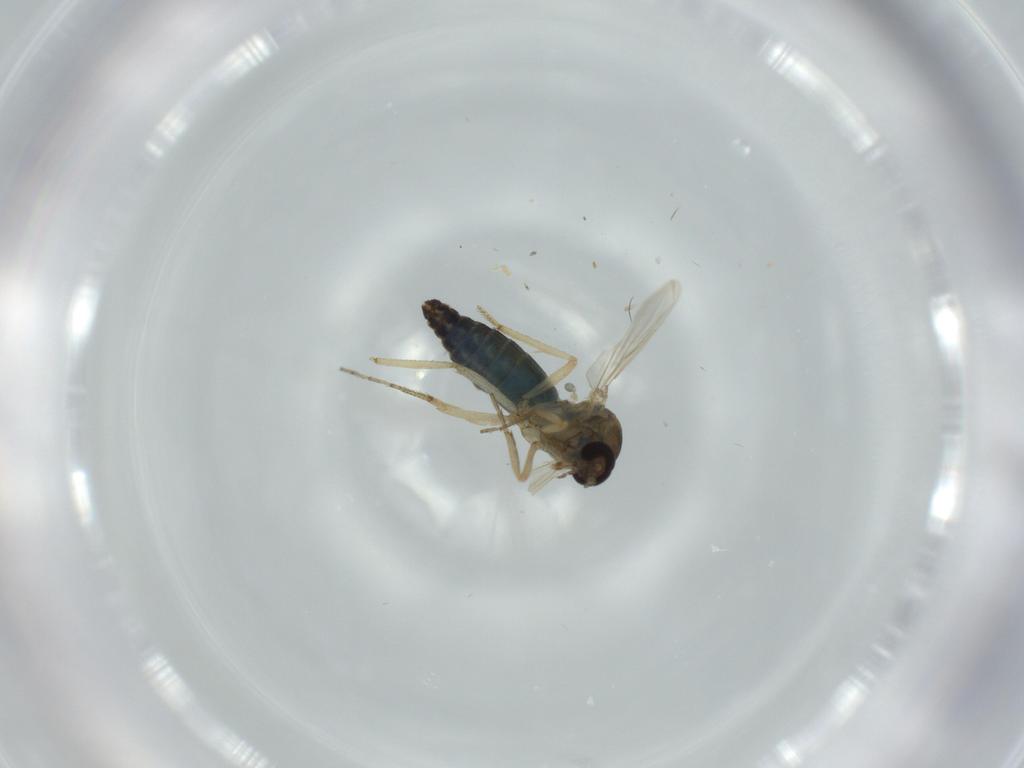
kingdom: Animalia
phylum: Arthropoda
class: Insecta
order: Diptera
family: Ceratopogonidae
